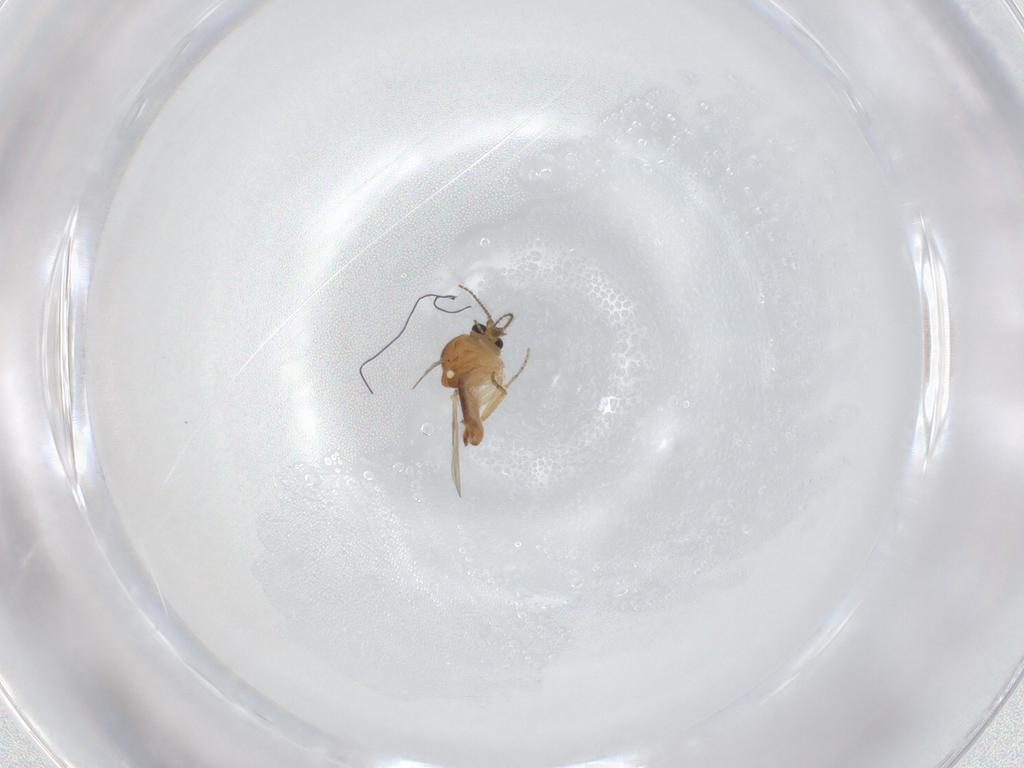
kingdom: Animalia
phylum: Arthropoda
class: Insecta
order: Diptera
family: Ceratopogonidae
